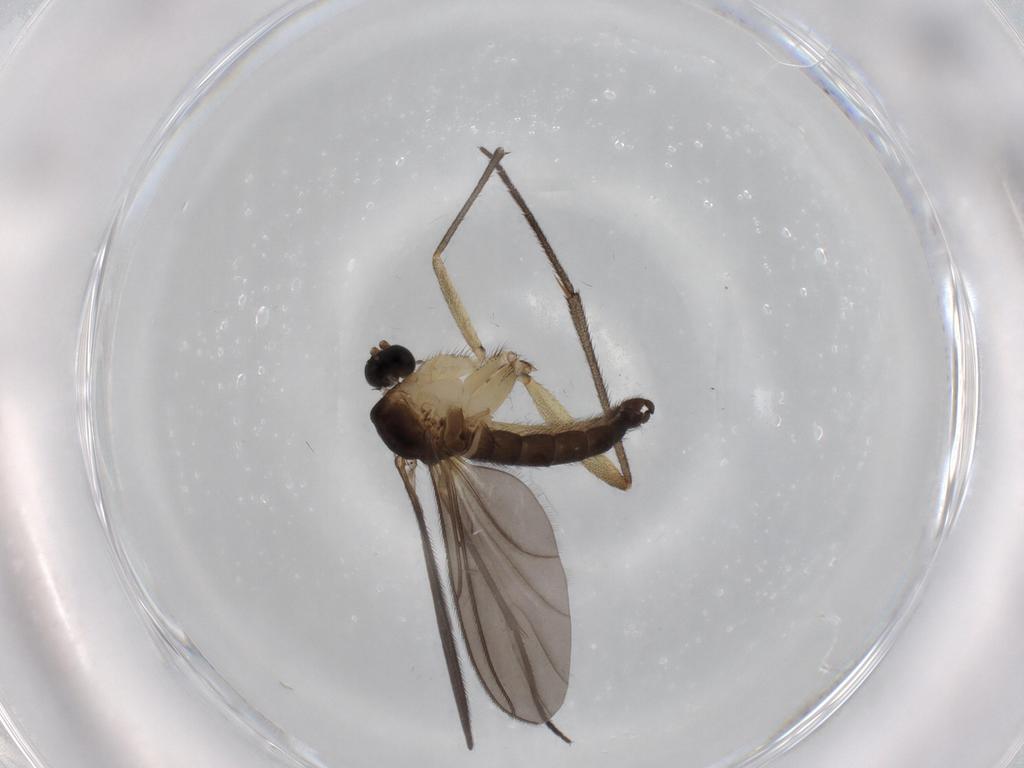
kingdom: Animalia
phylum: Arthropoda
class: Insecta
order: Diptera
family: Sciaridae
